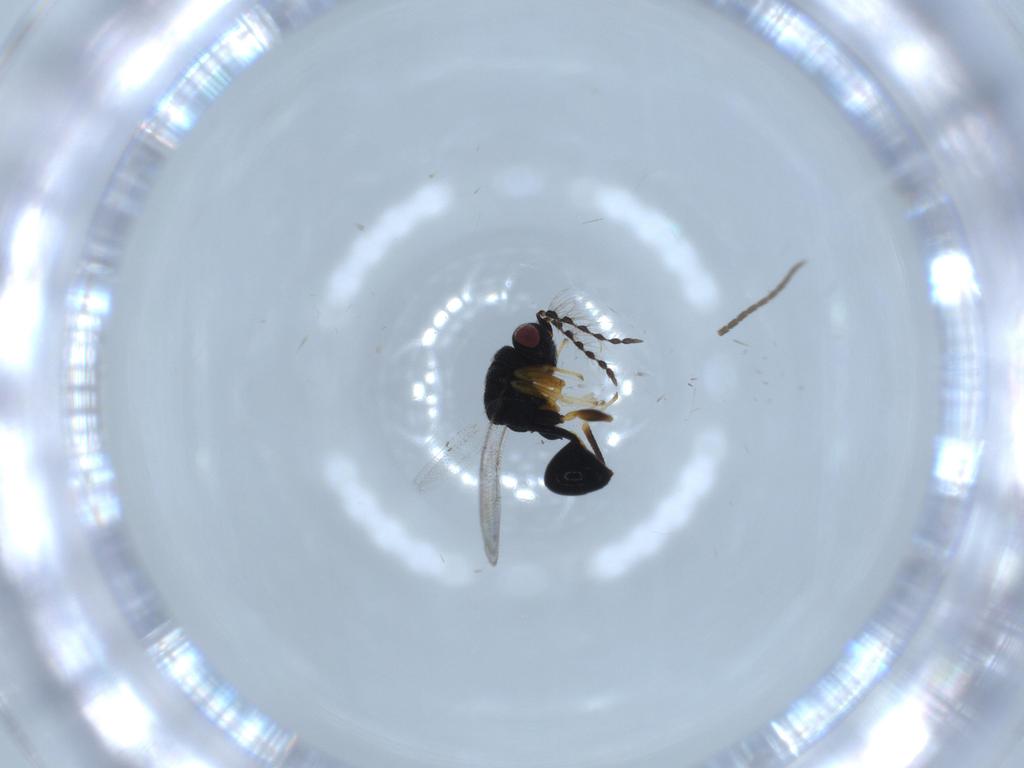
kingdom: Animalia
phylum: Arthropoda
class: Insecta
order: Hymenoptera
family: Eurytomidae
